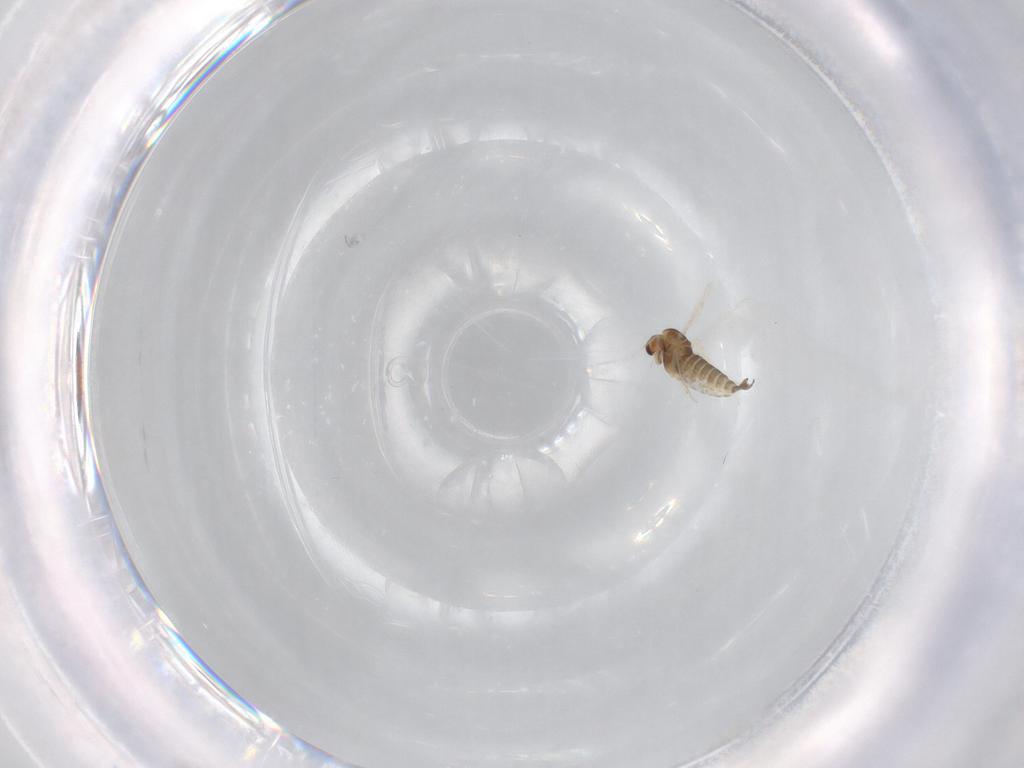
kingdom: Animalia
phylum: Arthropoda
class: Insecta
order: Diptera
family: Chironomidae
